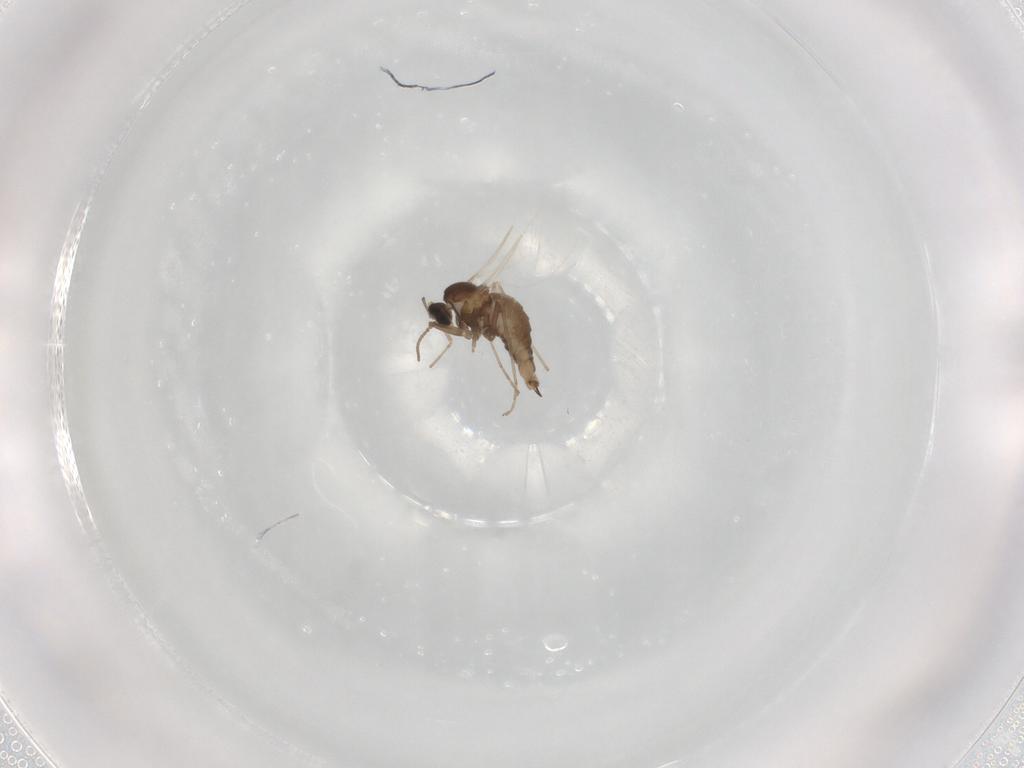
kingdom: Animalia
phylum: Arthropoda
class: Insecta
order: Diptera
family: Cecidomyiidae
